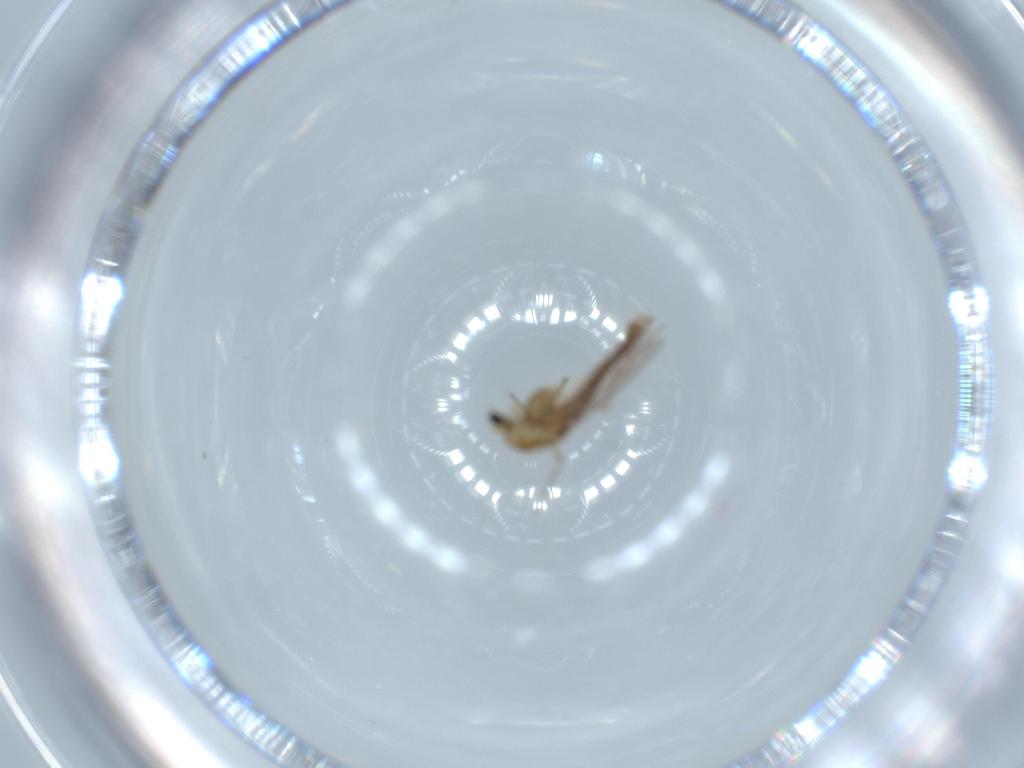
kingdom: Animalia
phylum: Arthropoda
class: Insecta
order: Diptera
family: Chironomidae
